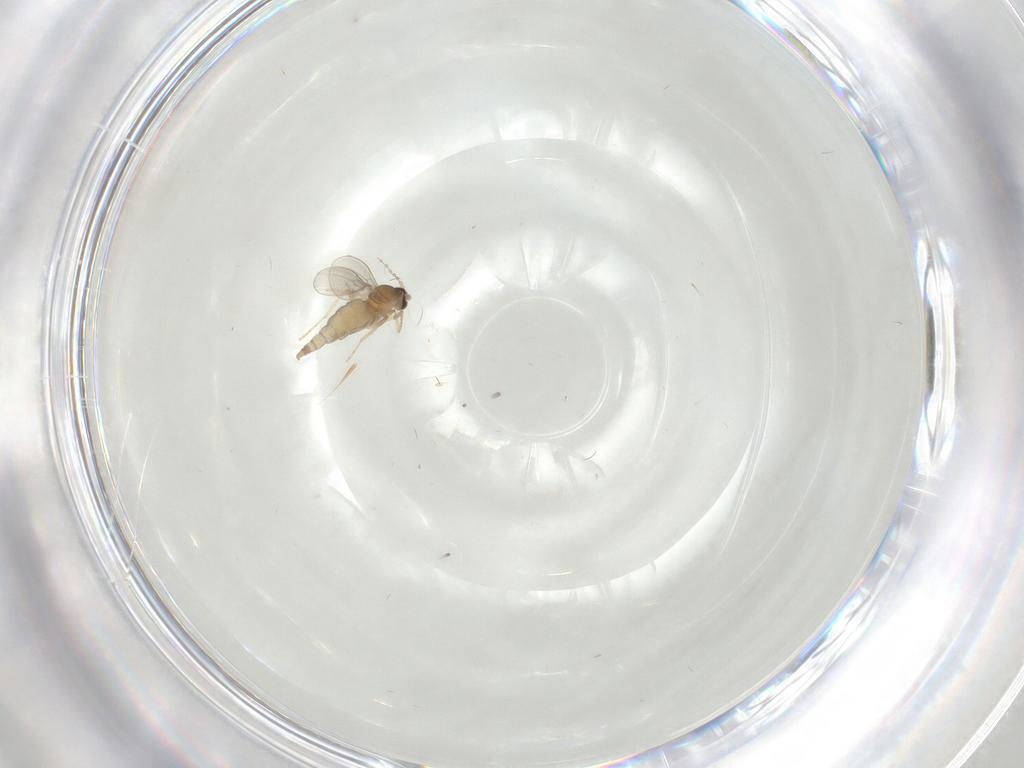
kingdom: Animalia
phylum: Arthropoda
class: Insecta
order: Diptera
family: Cecidomyiidae
